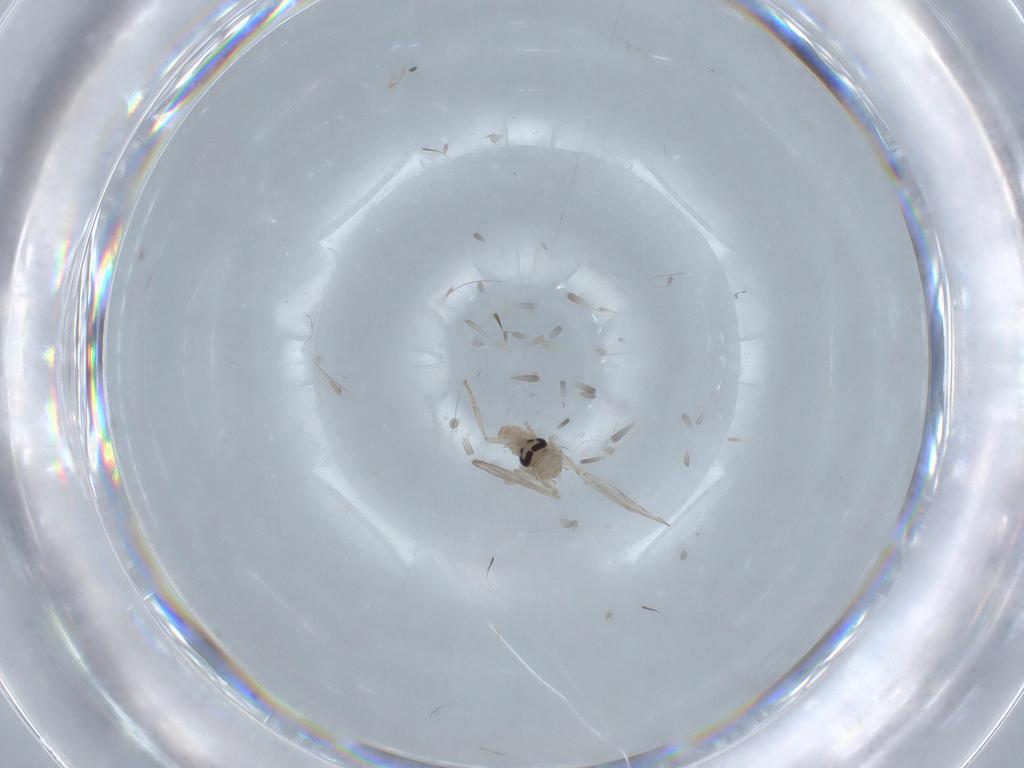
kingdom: Animalia
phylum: Arthropoda
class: Insecta
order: Diptera
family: Psychodidae
